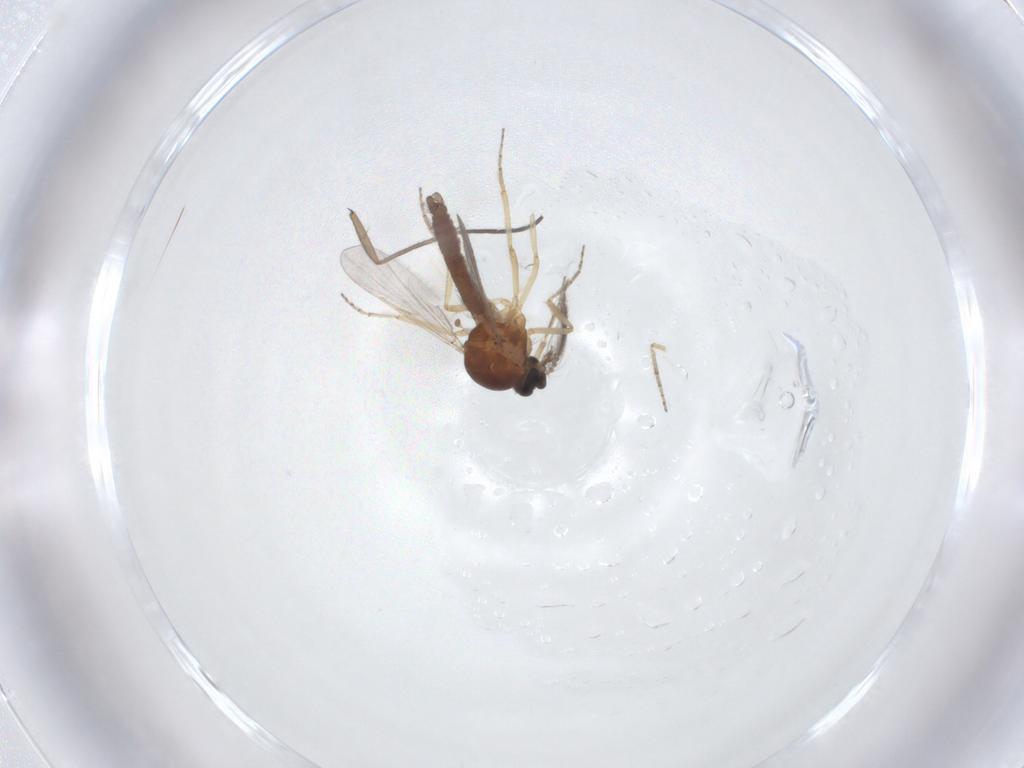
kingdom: Animalia
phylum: Arthropoda
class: Insecta
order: Diptera
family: Ceratopogonidae
